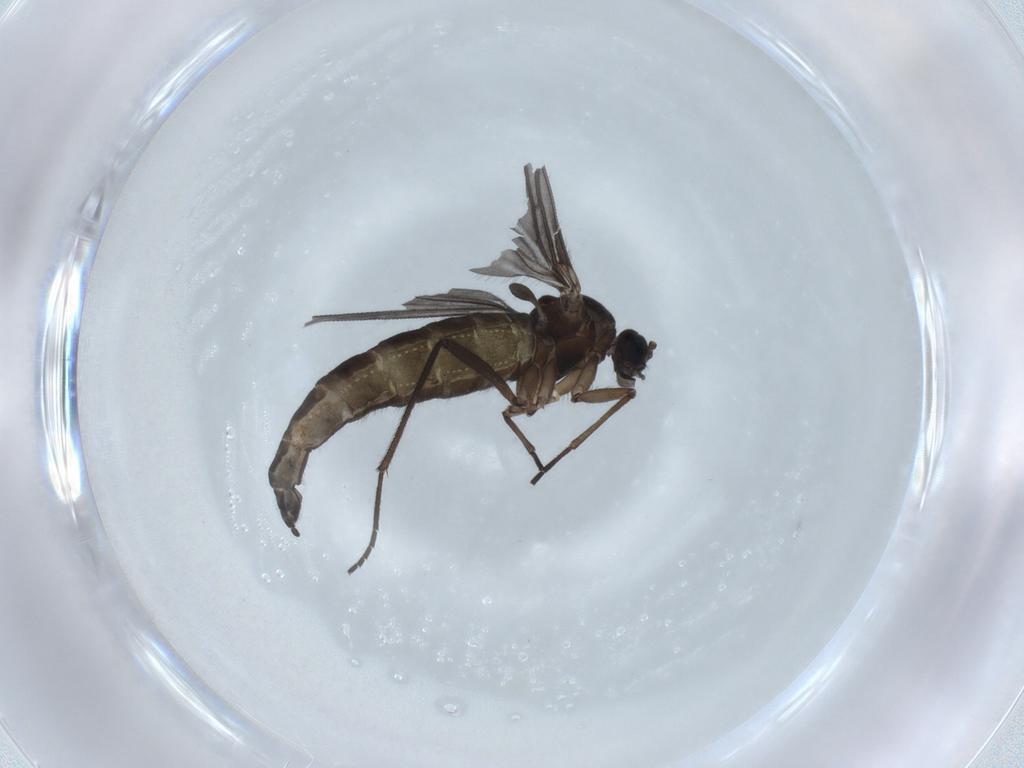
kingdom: Animalia
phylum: Arthropoda
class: Insecta
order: Diptera
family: Sciaridae
